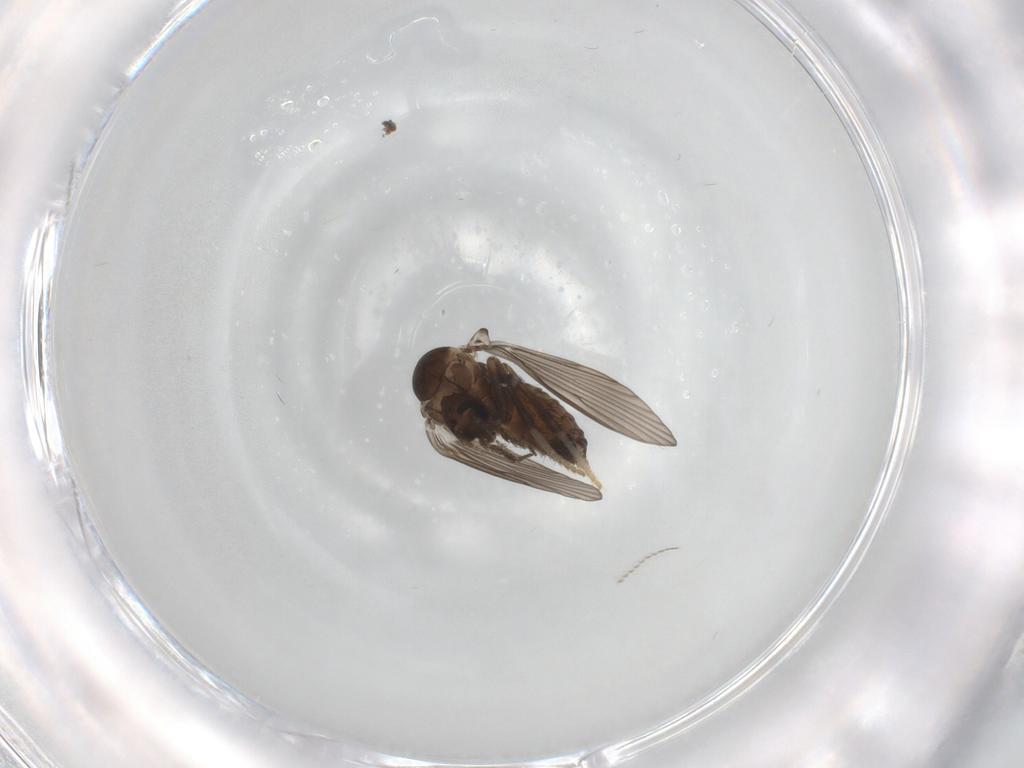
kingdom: Animalia
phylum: Arthropoda
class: Insecta
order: Diptera
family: Psychodidae
